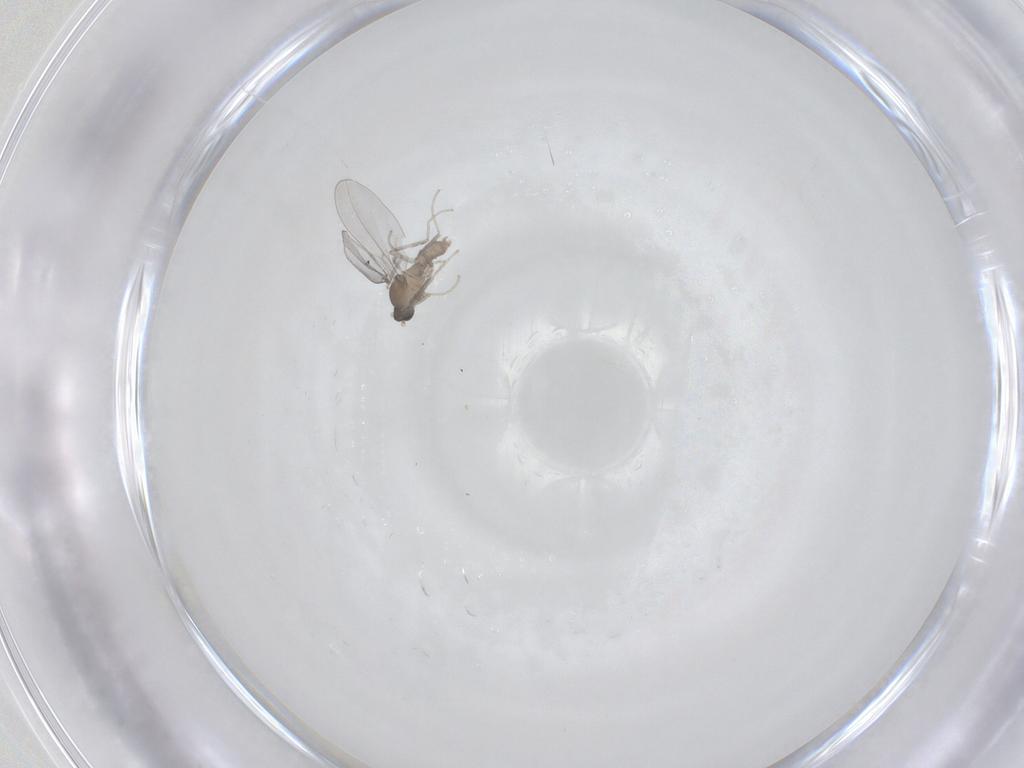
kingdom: Animalia
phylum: Arthropoda
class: Insecta
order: Diptera
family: Cecidomyiidae
